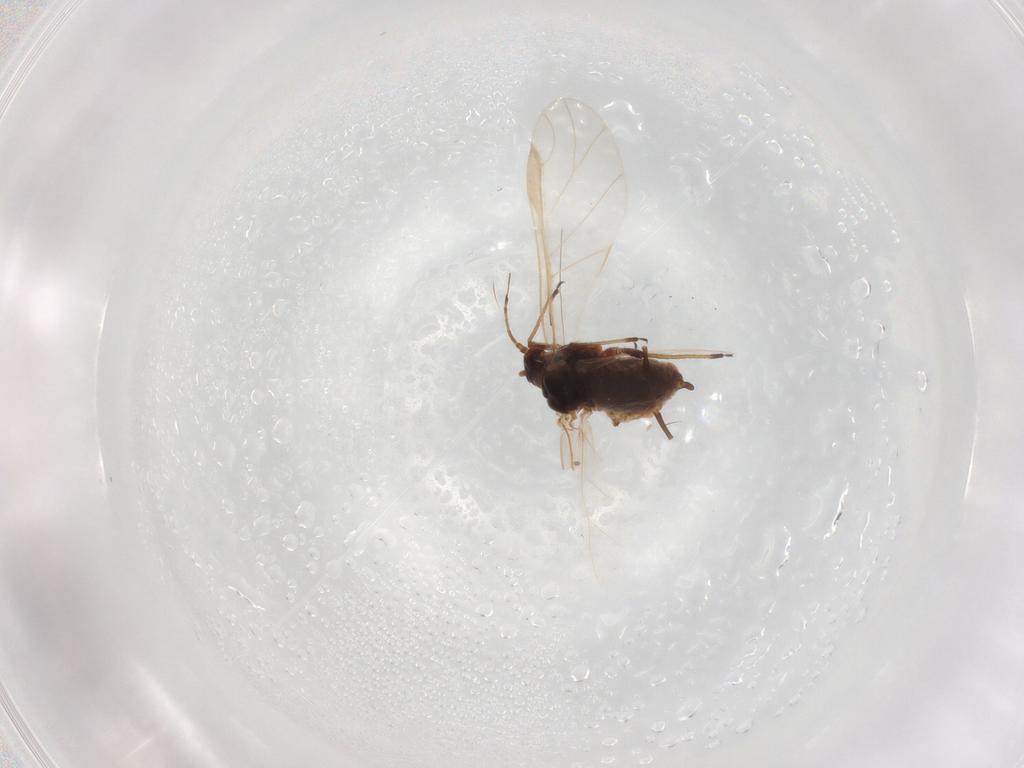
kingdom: Animalia
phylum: Arthropoda
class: Insecta
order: Hemiptera
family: Aphididae
